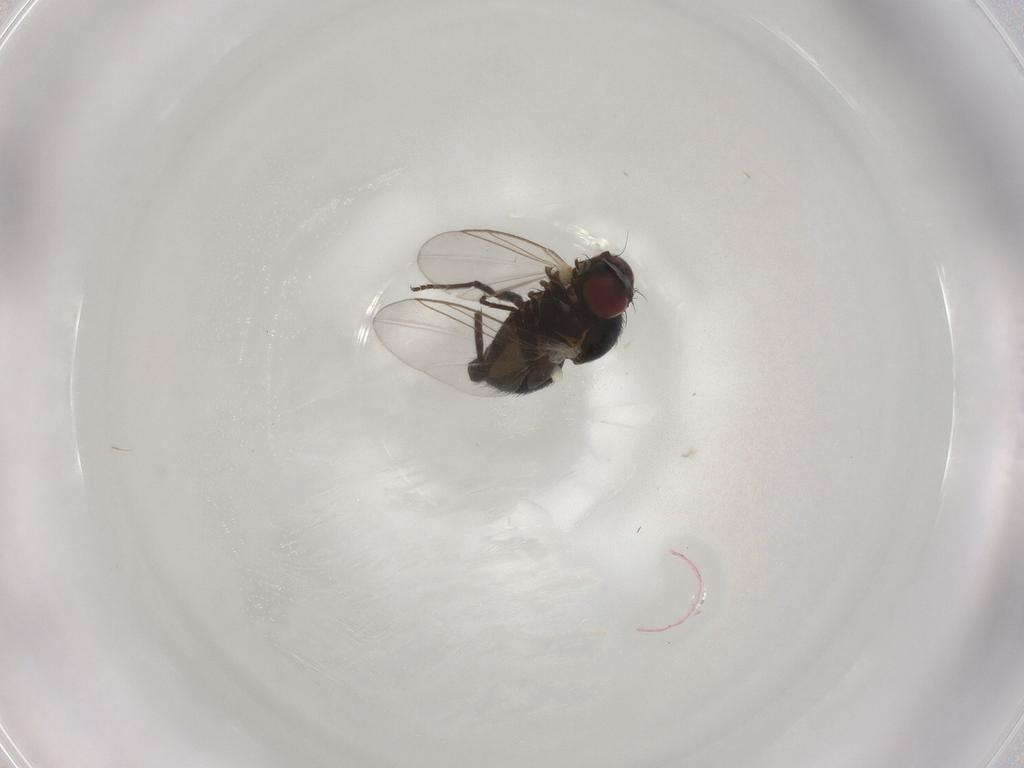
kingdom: Animalia
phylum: Arthropoda
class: Insecta
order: Diptera
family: Agromyzidae
